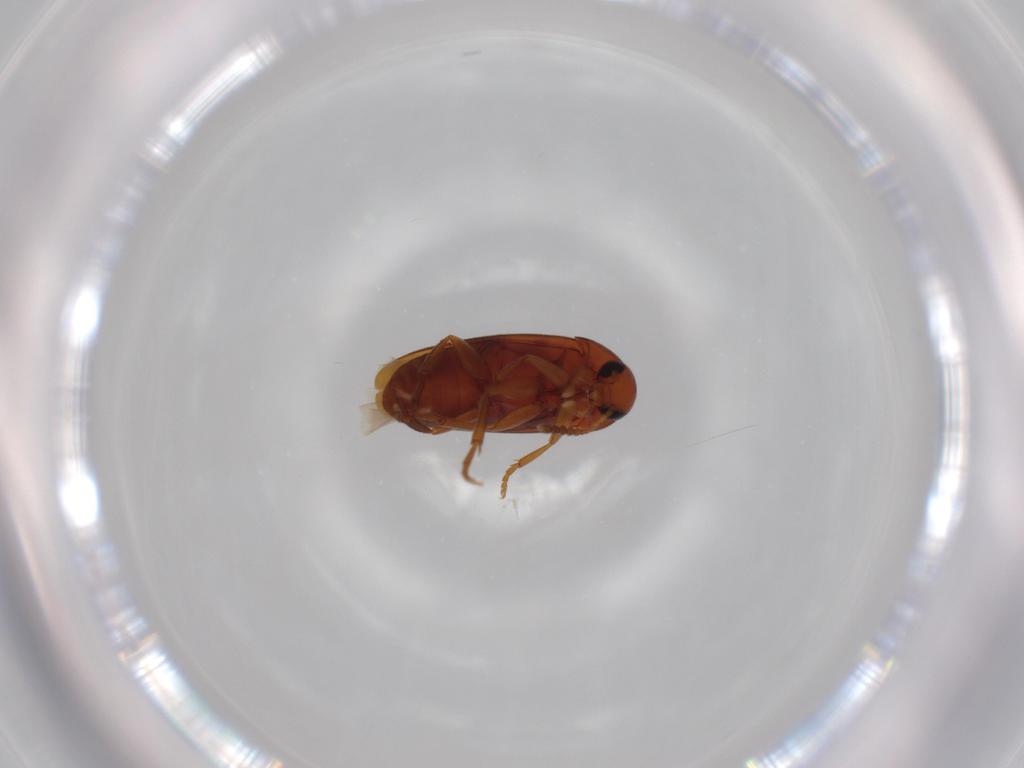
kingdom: Animalia
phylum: Arthropoda
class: Insecta
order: Coleoptera
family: Scraptiidae
